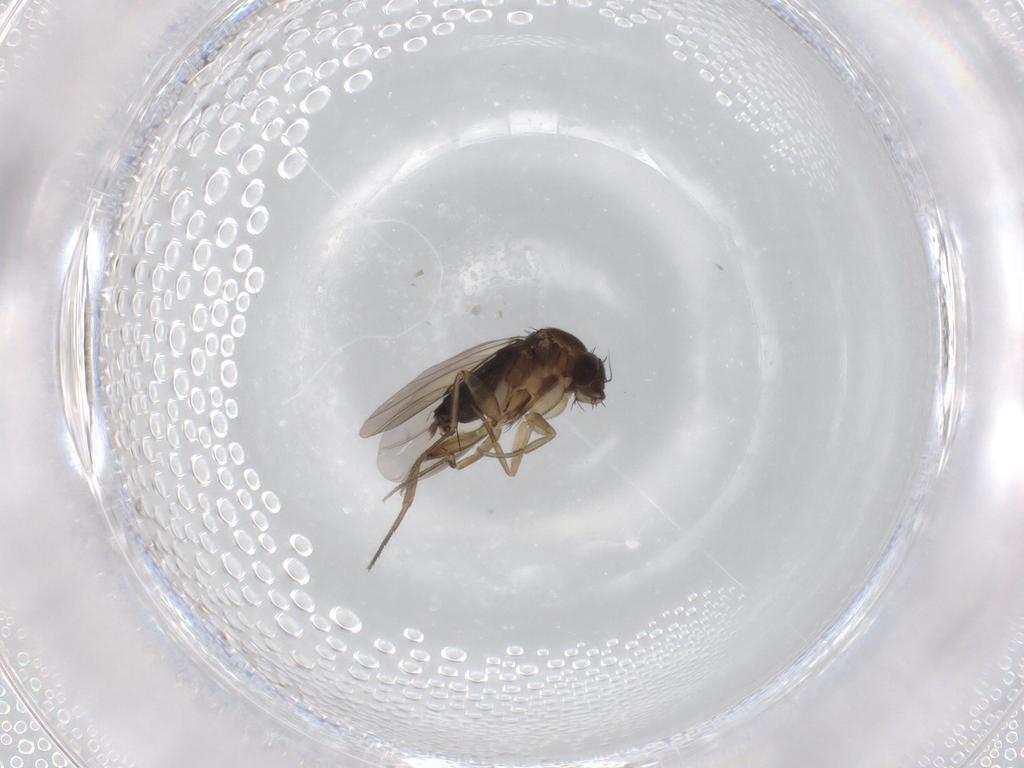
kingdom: Animalia
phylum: Arthropoda
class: Insecta
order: Diptera
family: Phoridae
